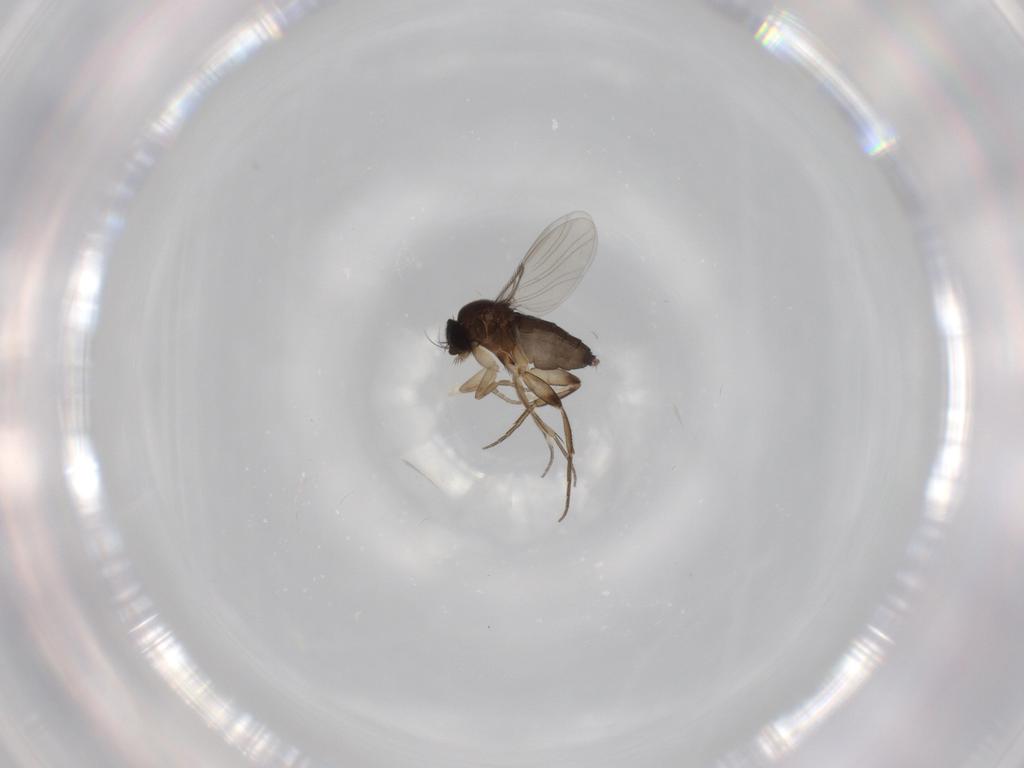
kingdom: Animalia
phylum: Arthropoda
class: Insecta
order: Diptera
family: Phoridae
